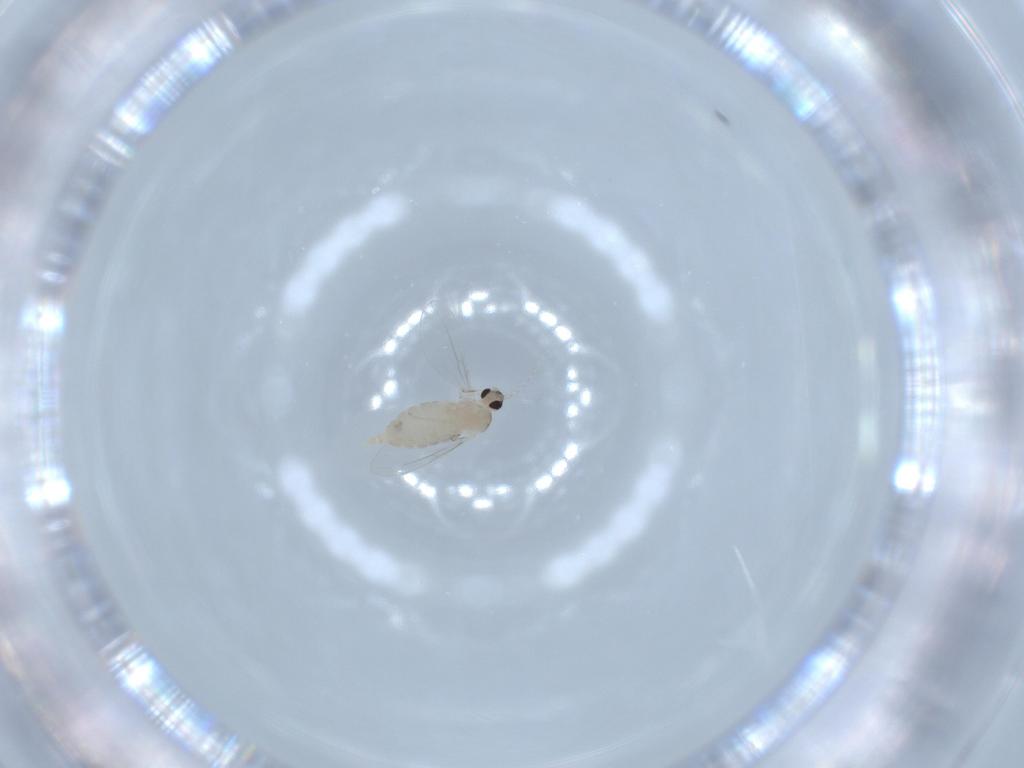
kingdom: Animalia
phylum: Arthropoda
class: Insecta
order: Diptera
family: Cecidomyiidae
